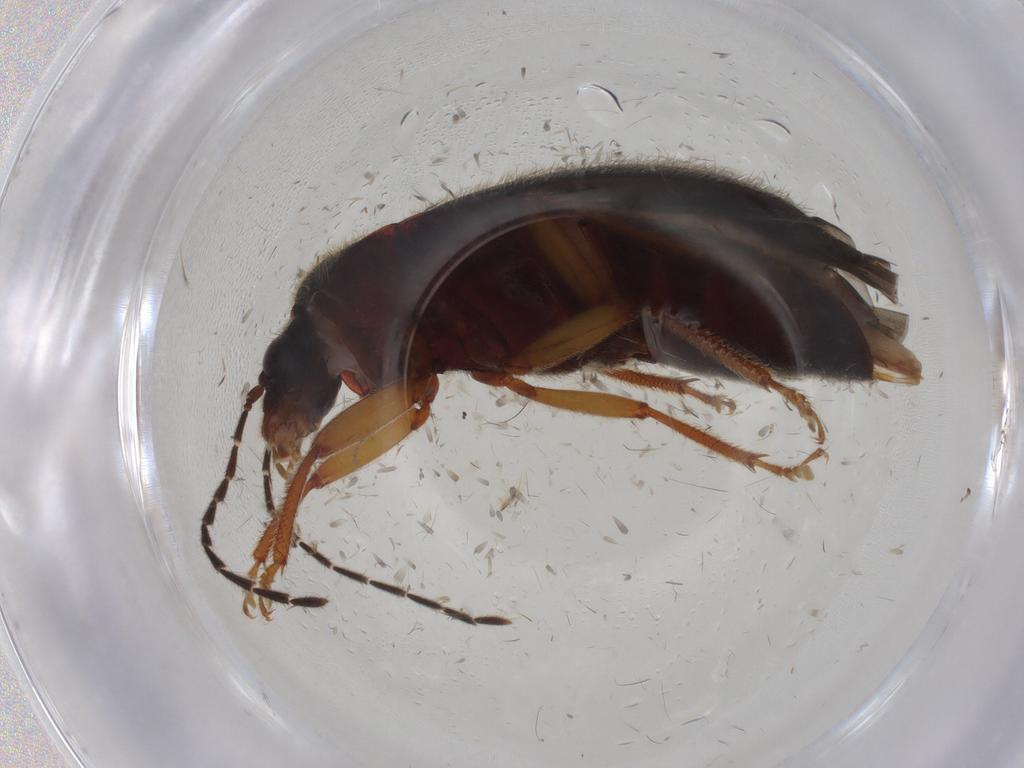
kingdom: Animalia
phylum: Arthropoda
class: Insecta
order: Coleoptera
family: Ptilodactylidae
